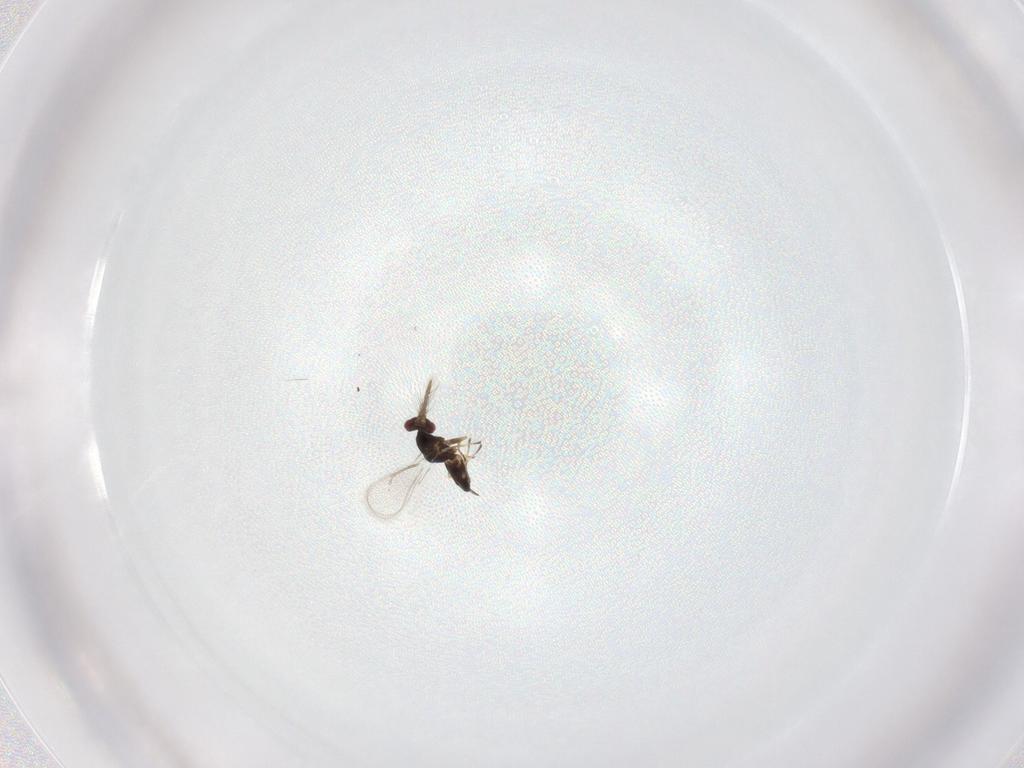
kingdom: Animalia
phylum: Arthropoda
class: Insecta
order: Hymenoptera
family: Eulophidae
